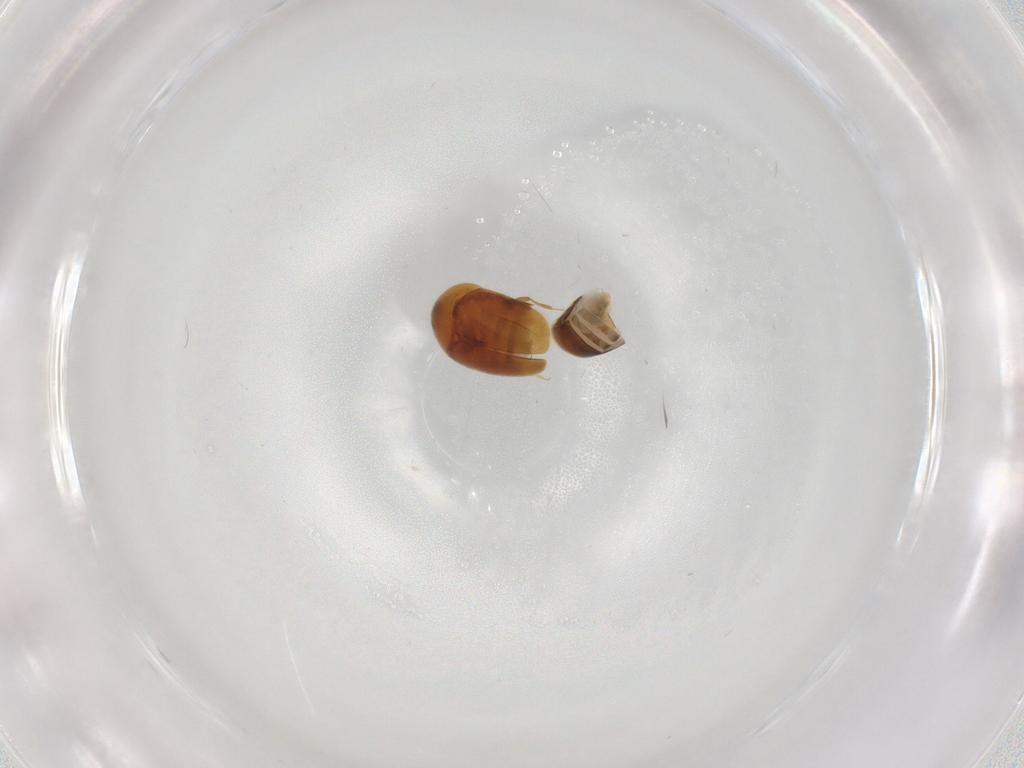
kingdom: Animalia
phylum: Arthropoda
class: Insecta
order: Coleoptera
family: Corylophidae
